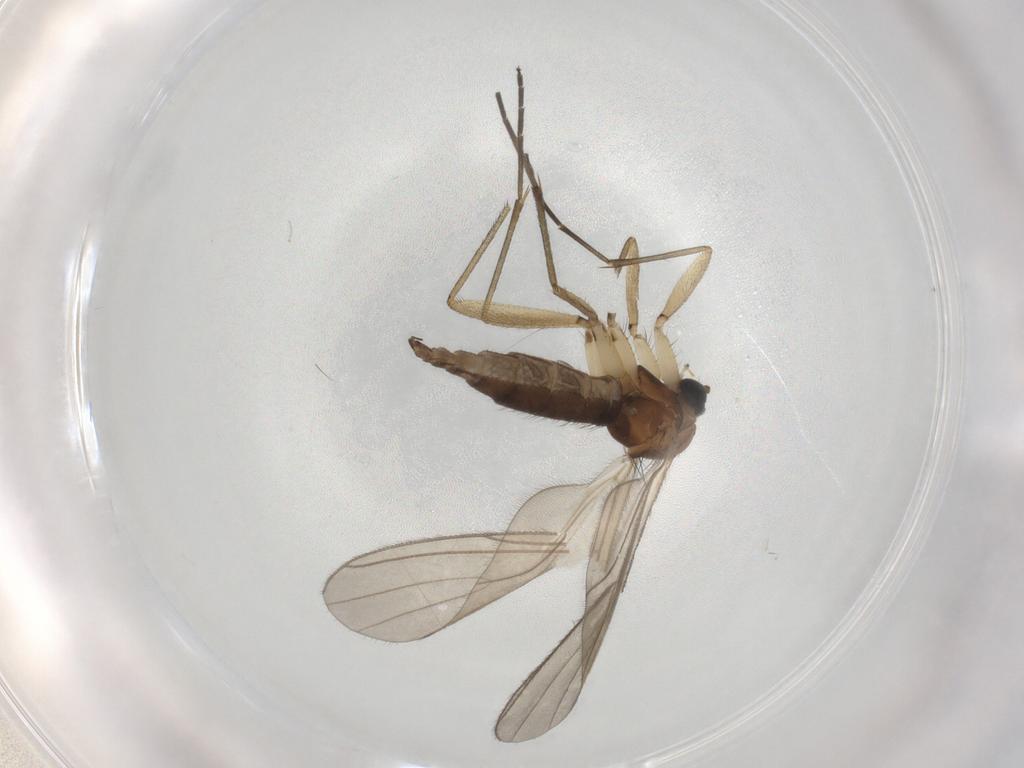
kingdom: Animalia
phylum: Arthropoda
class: Insecta
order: Diptera
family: Sciaridae
